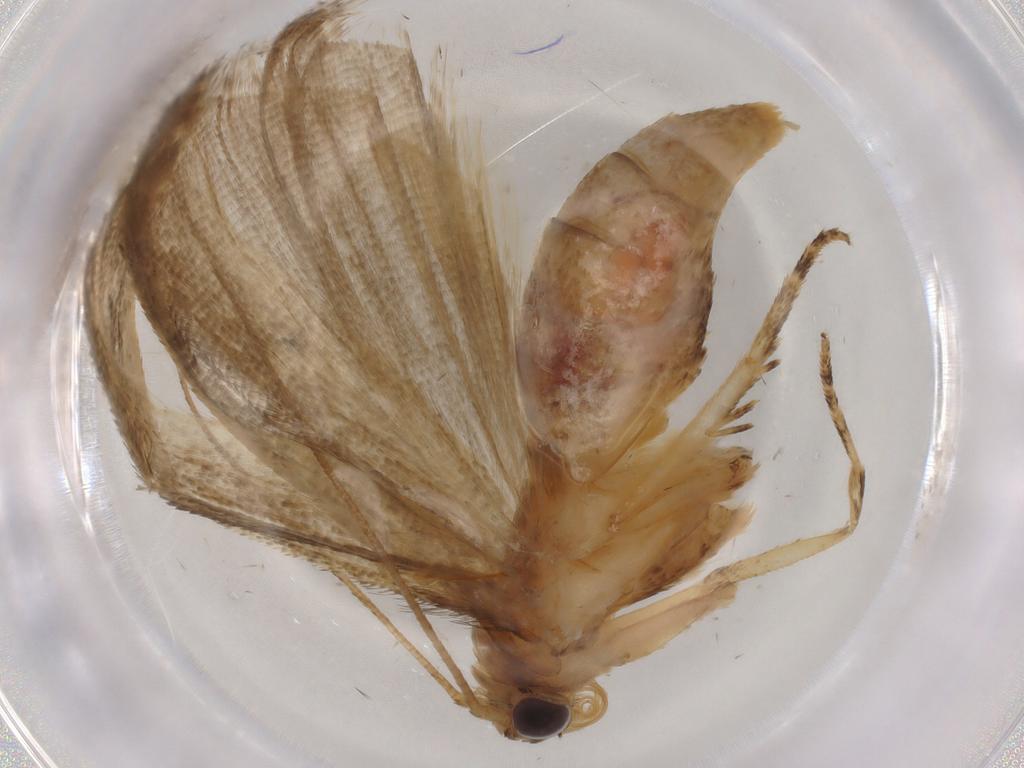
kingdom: Animalia
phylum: Arthropoda
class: Insecta
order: Lepidoptera
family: Erebidae
